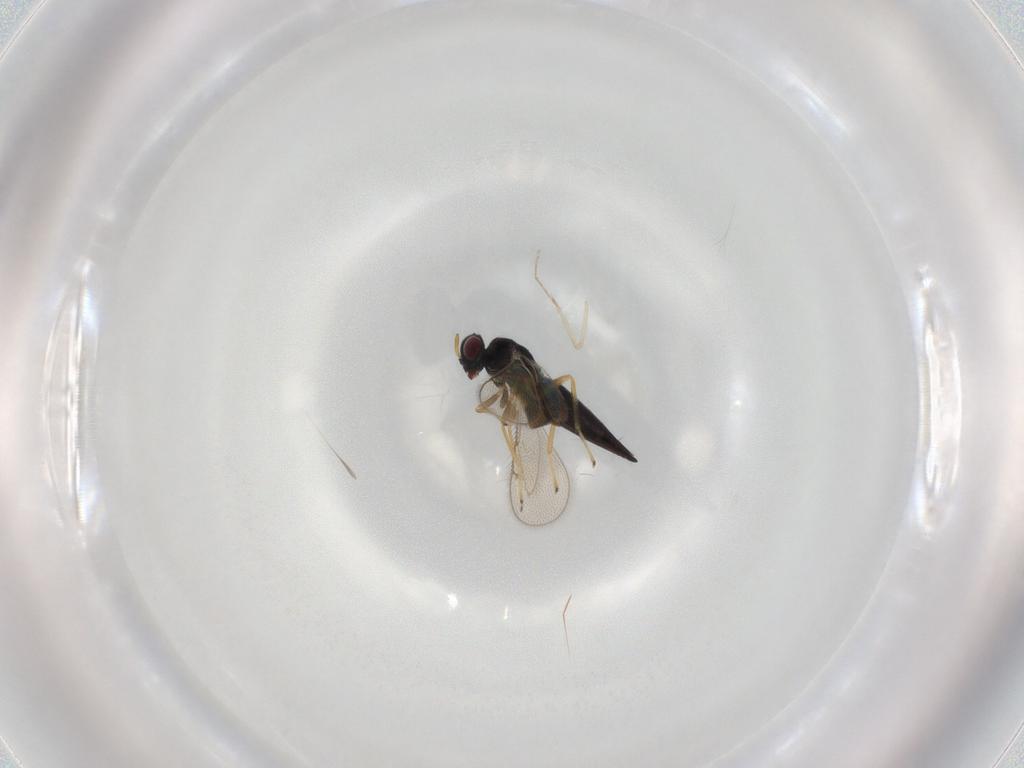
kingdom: Animalia
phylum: Arthropoda
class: Insecta
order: Hymenoptera
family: Eulophidae
